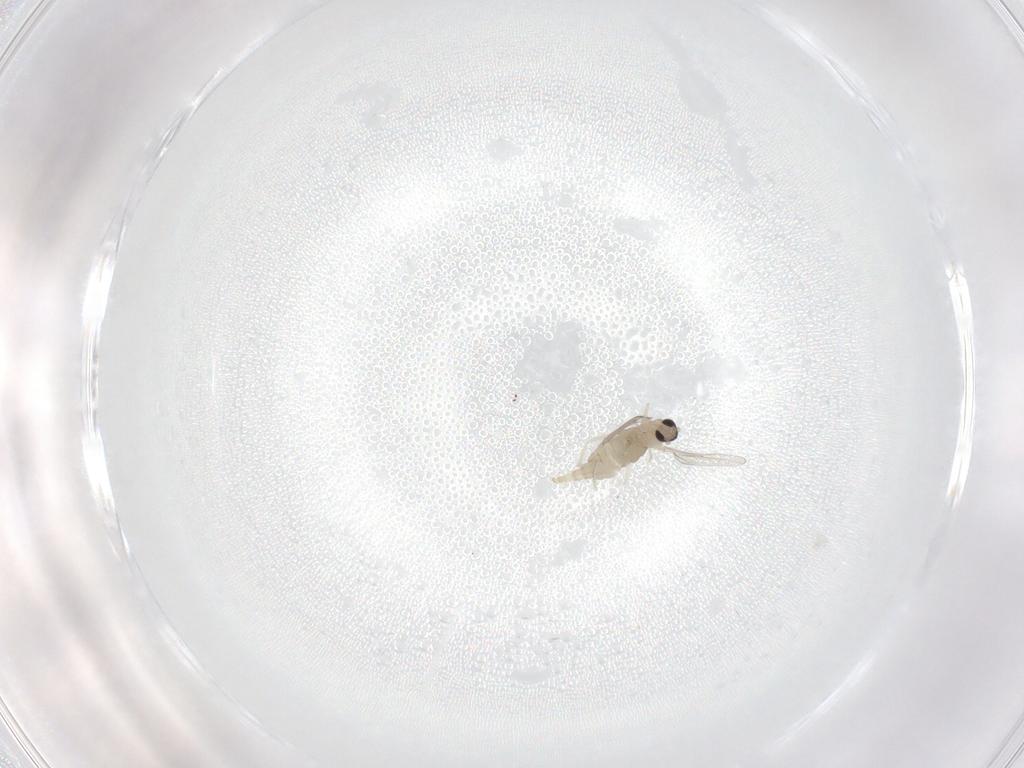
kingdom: Animalia
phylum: Arthropoda
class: Insecta
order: Diptera
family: Cecidomyiidae
